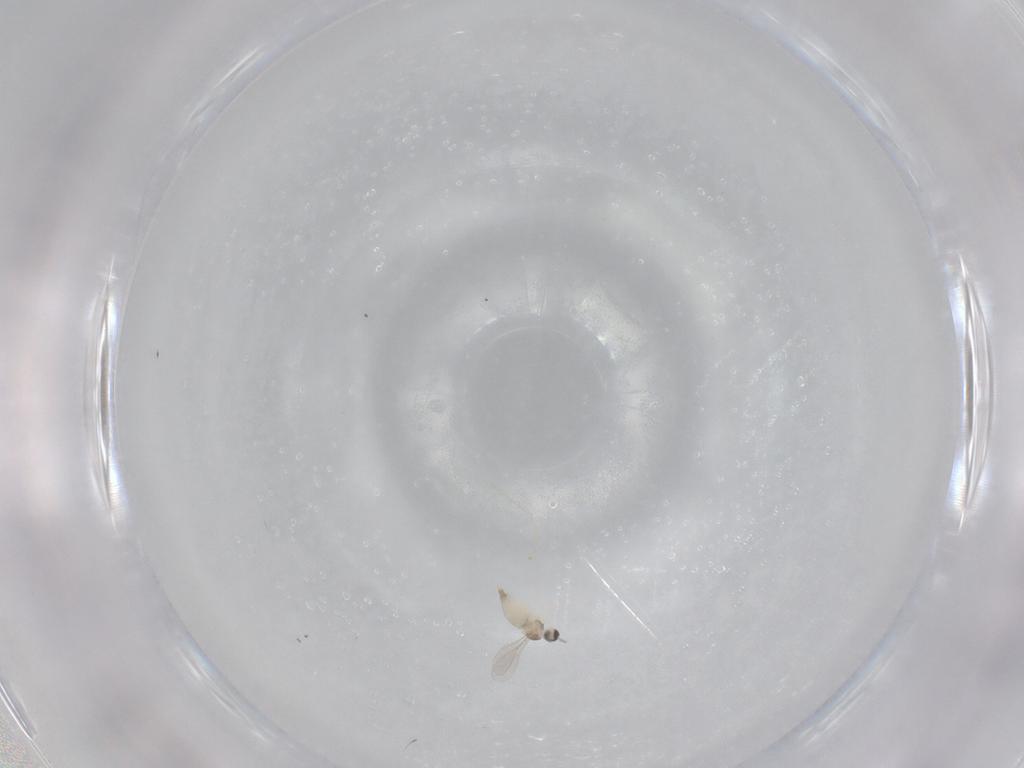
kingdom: Animalia
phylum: Arthropoda
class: Insecta
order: Diptera
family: Cecidomyiidae
